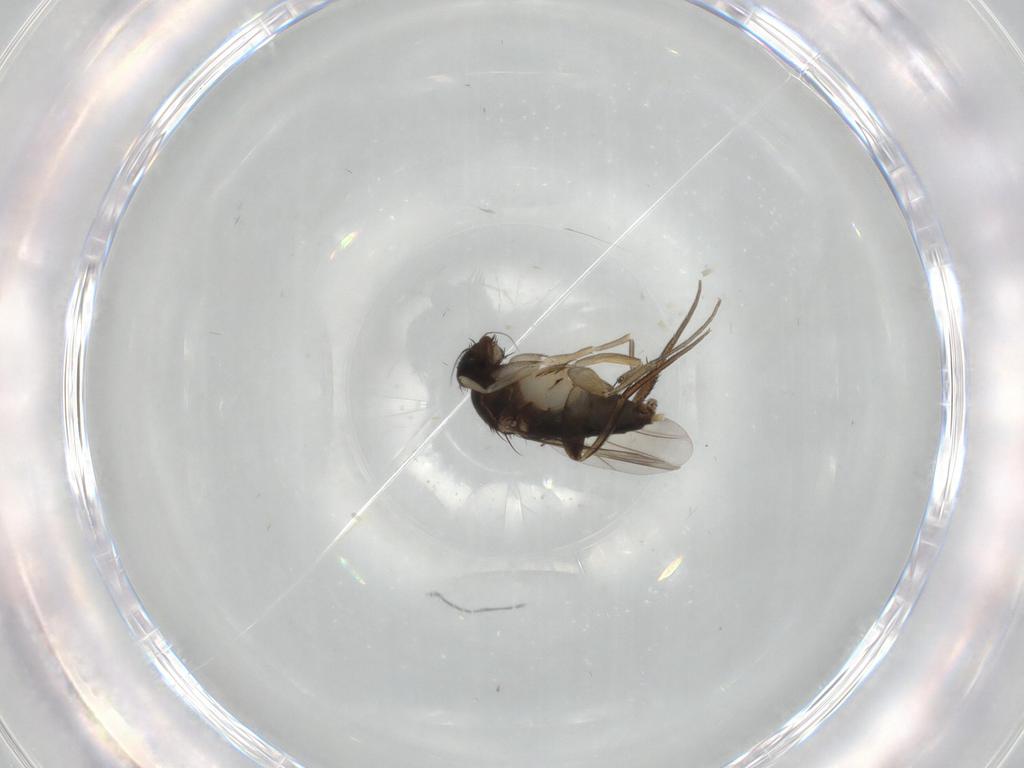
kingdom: Animalia
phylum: Arthropoda
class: Insecta
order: Diptera
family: Phoridae
